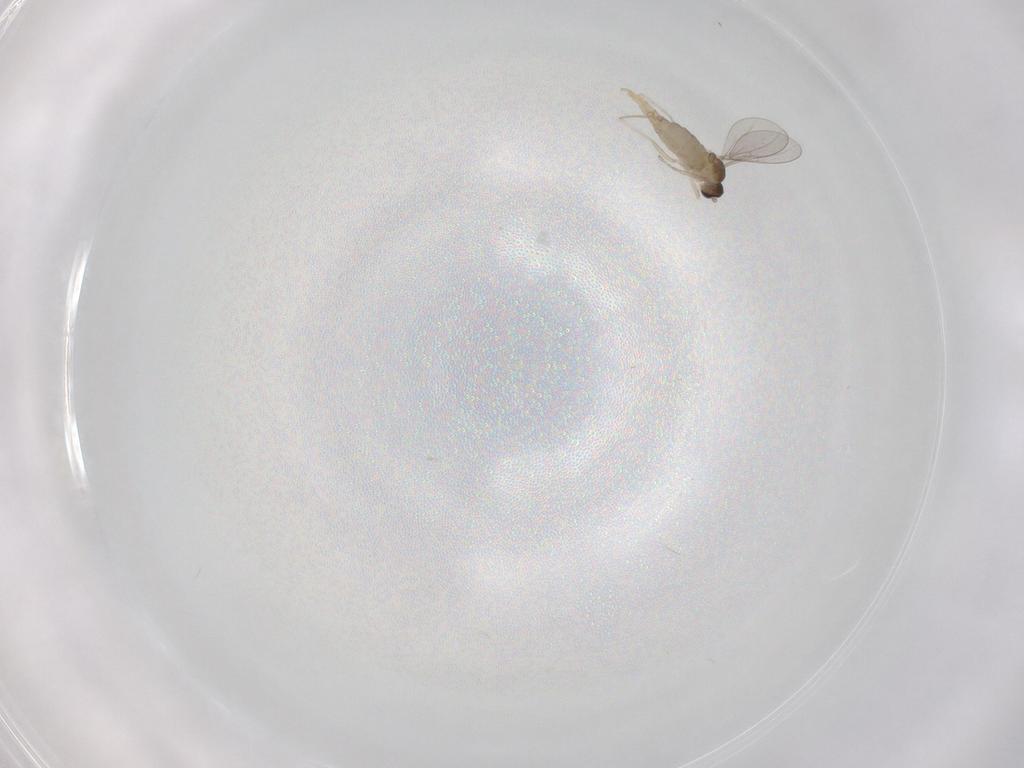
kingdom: Animalia
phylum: Arthropoda
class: Insecta
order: Diptera
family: Cecidomyiidae
